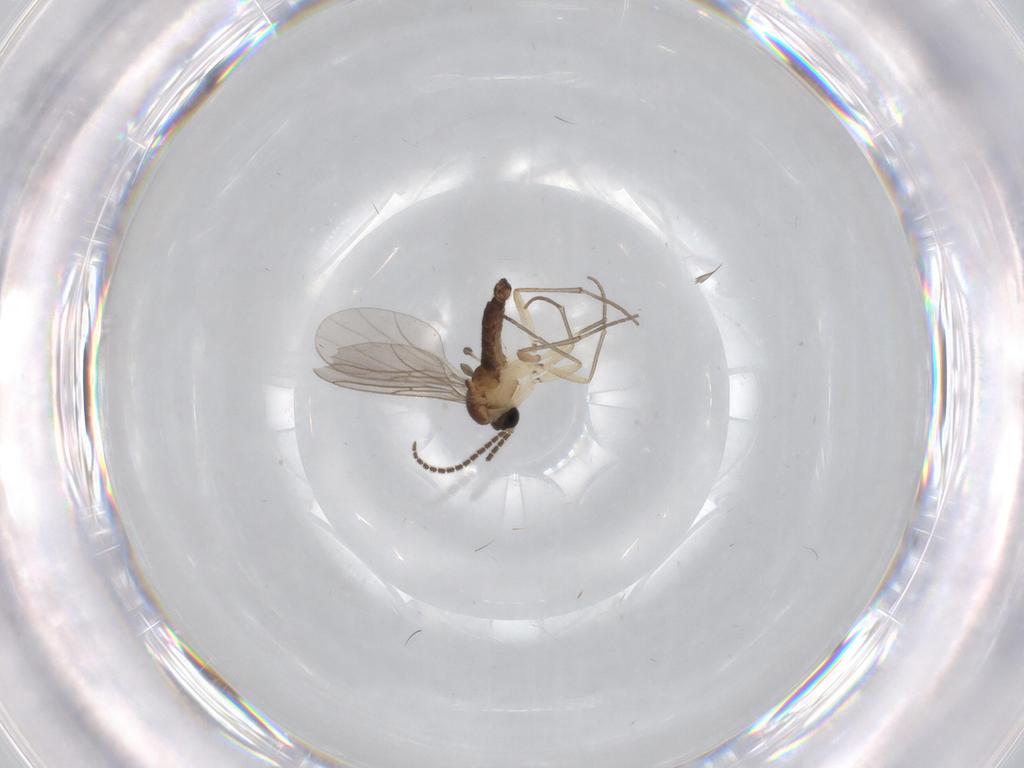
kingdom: Animalia
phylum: Arthropoda
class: Insecta
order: Diptera
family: Sciaridae
